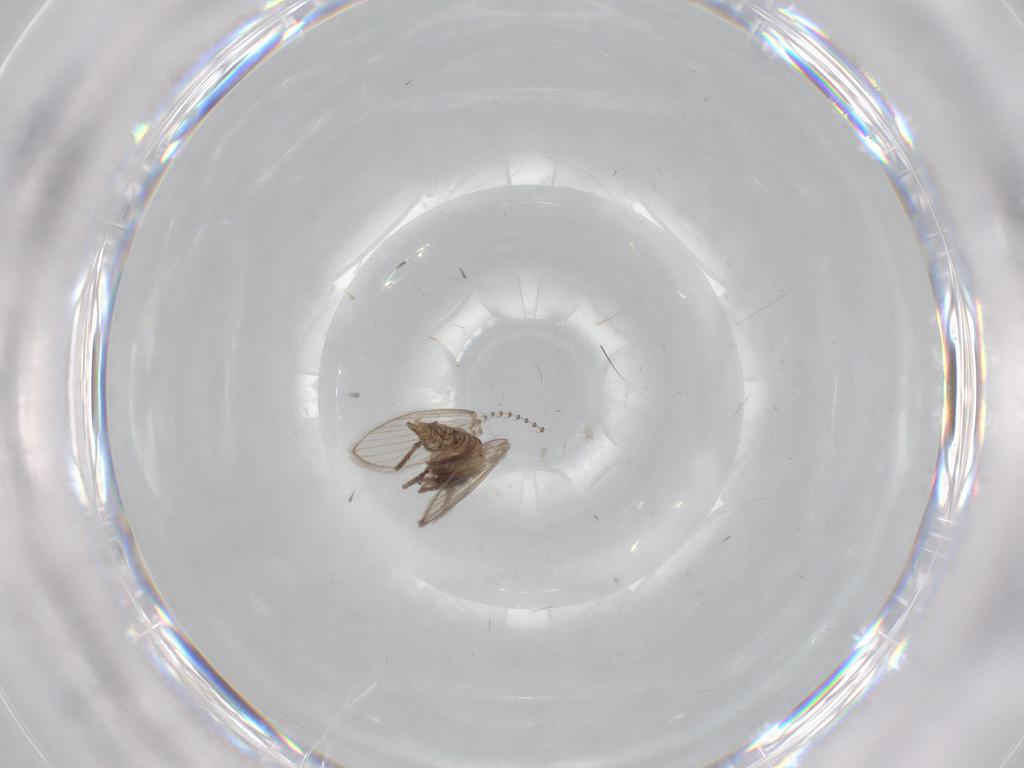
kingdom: Animalia
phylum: Arthropoda
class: Insecta
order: Diptera
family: Psychodidae
